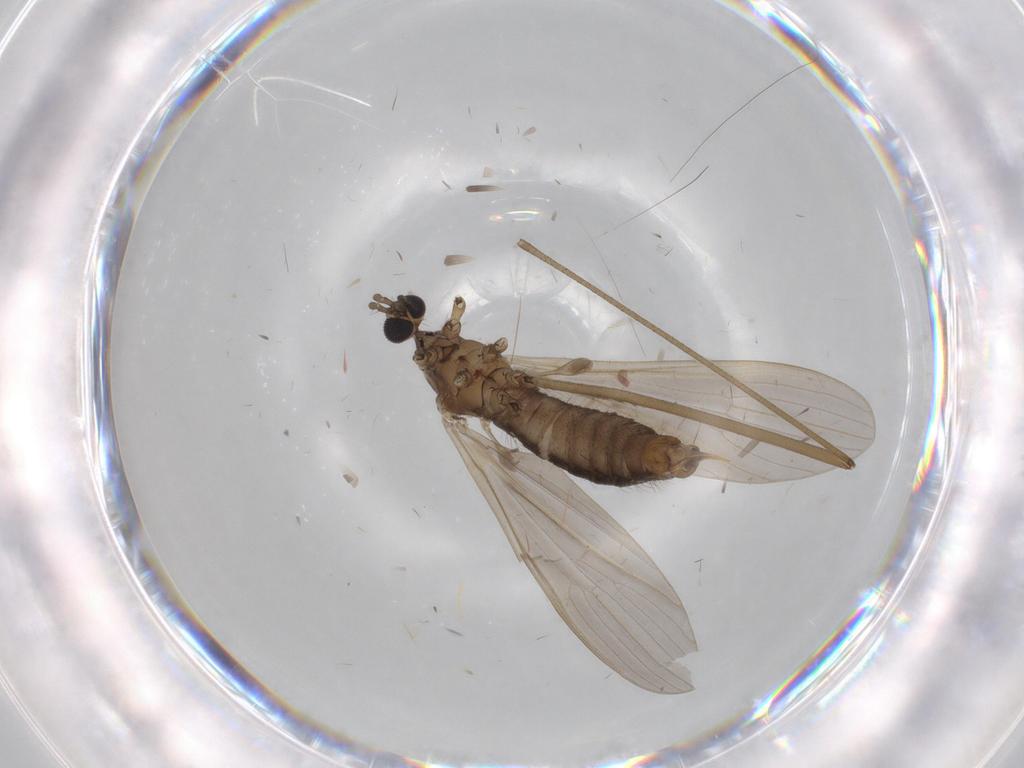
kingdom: Animalia
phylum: Arthropoda
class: Insecta
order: Diptera
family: Limoniidae
